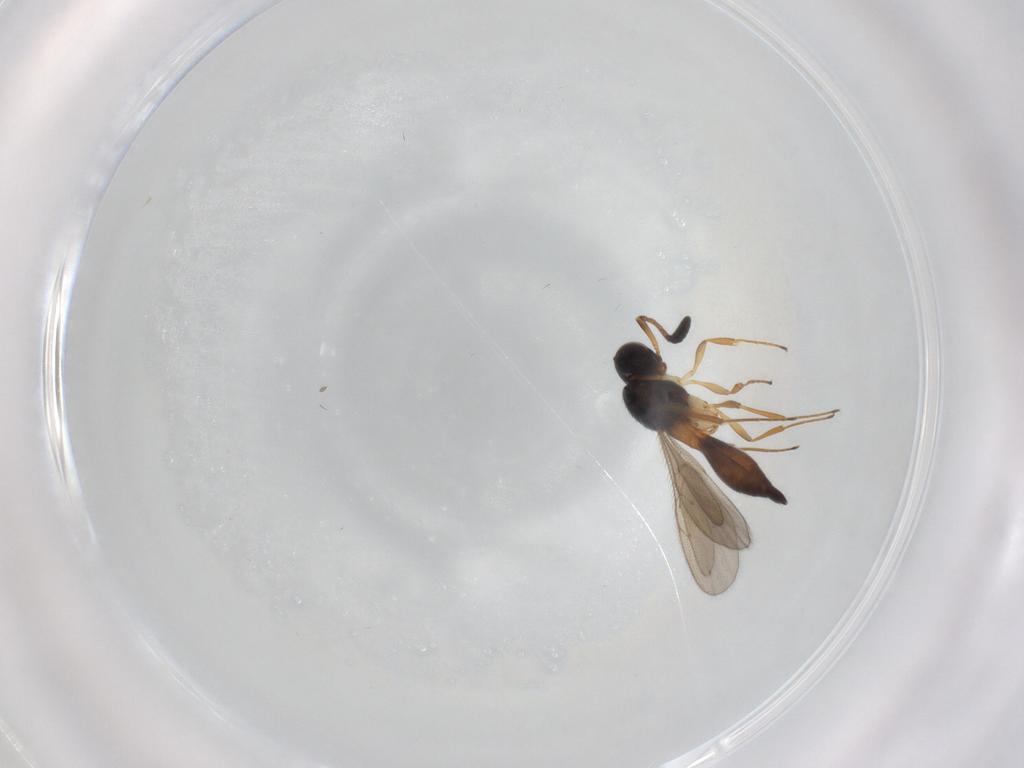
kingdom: Animalia
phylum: Arthropoda
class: Insecta
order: Hymenoptera
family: Scelionidae
